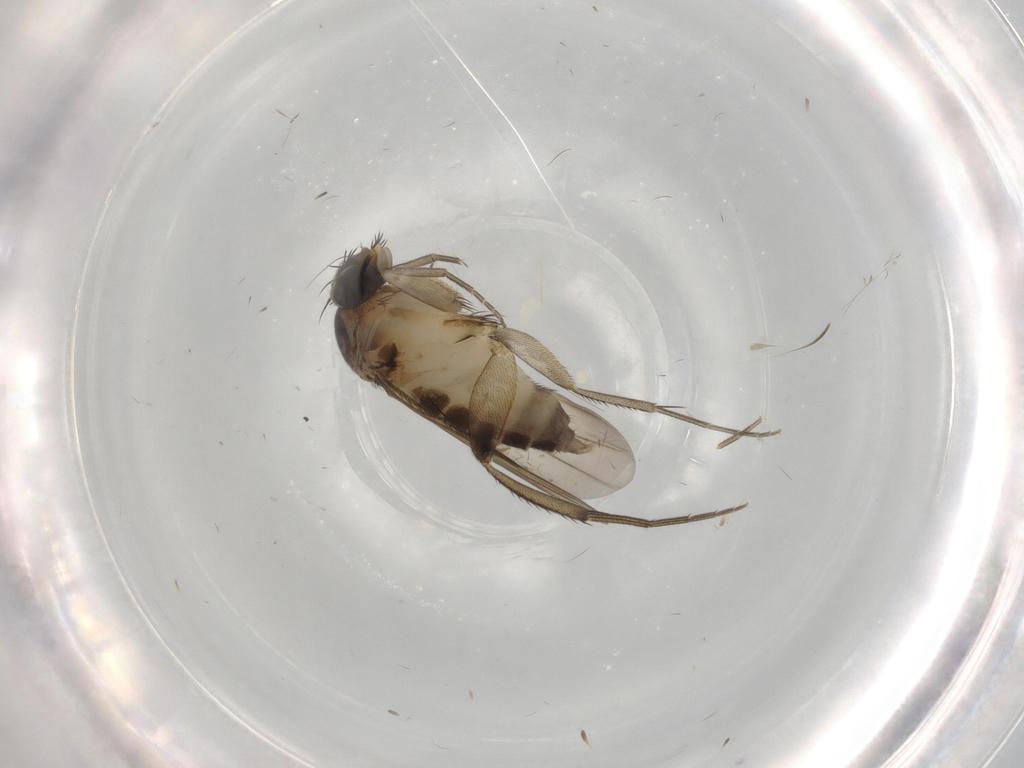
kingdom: Animalia
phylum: Arthropoda
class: Insecta
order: Diptera
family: Phoridae
